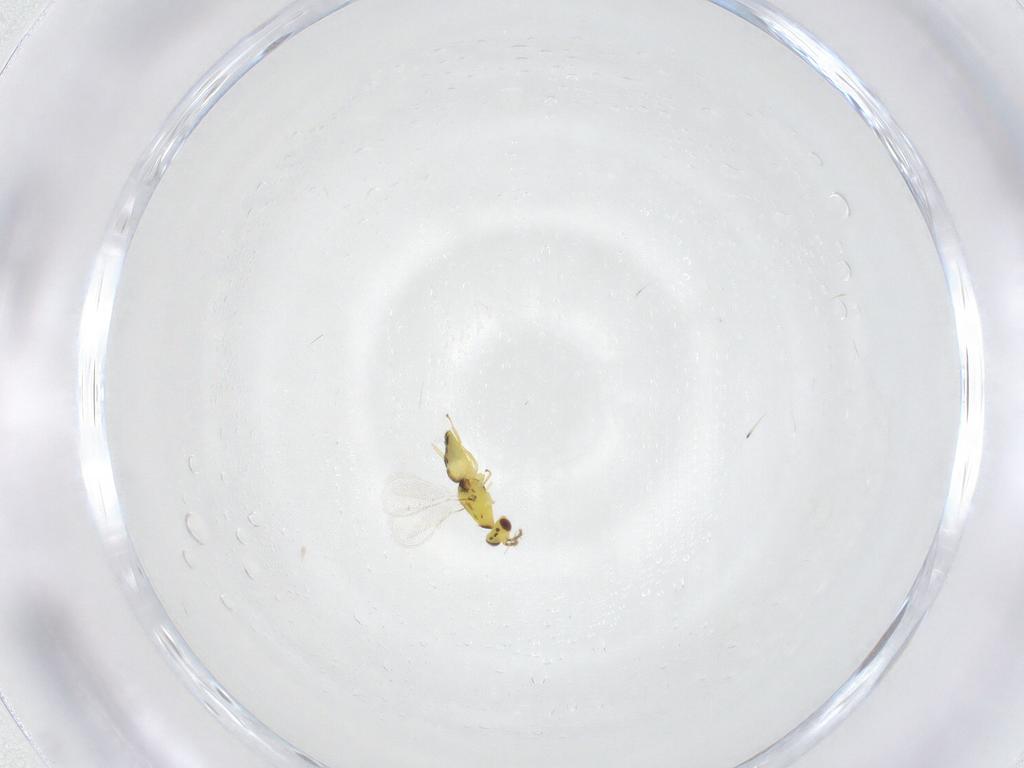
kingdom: Animalia
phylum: Arthropoda
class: Insecta
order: Hymenoptera
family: Eulophidae
